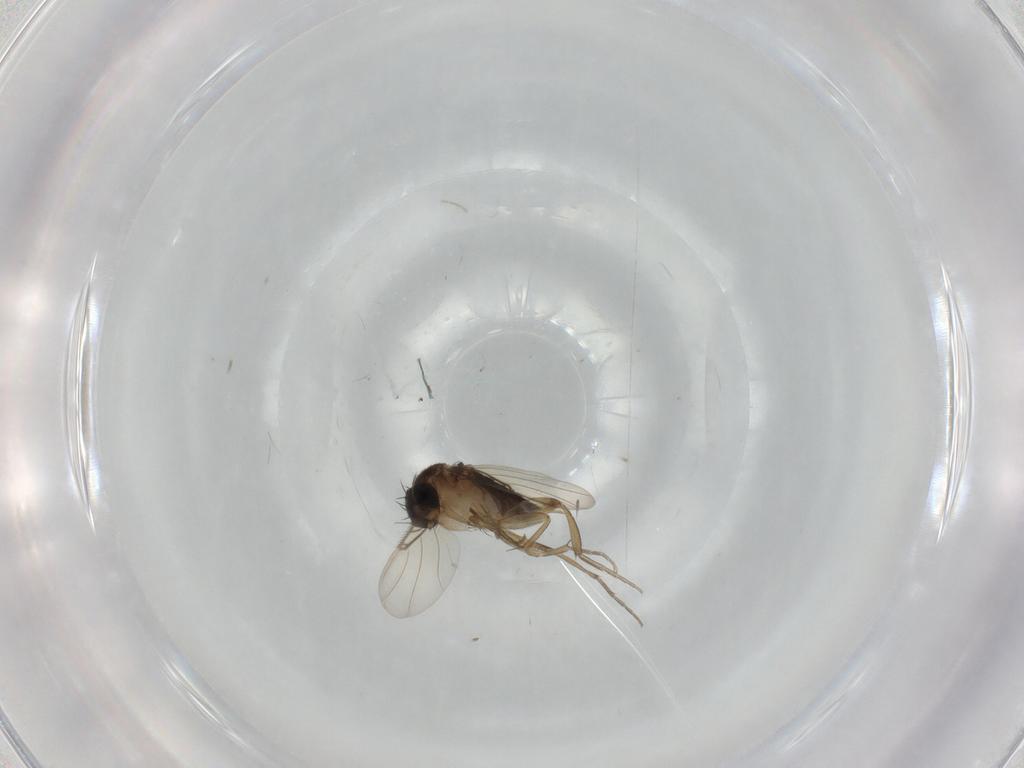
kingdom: Animalia
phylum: Arthropoda
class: Insecta
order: Diptera
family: Phoridae
